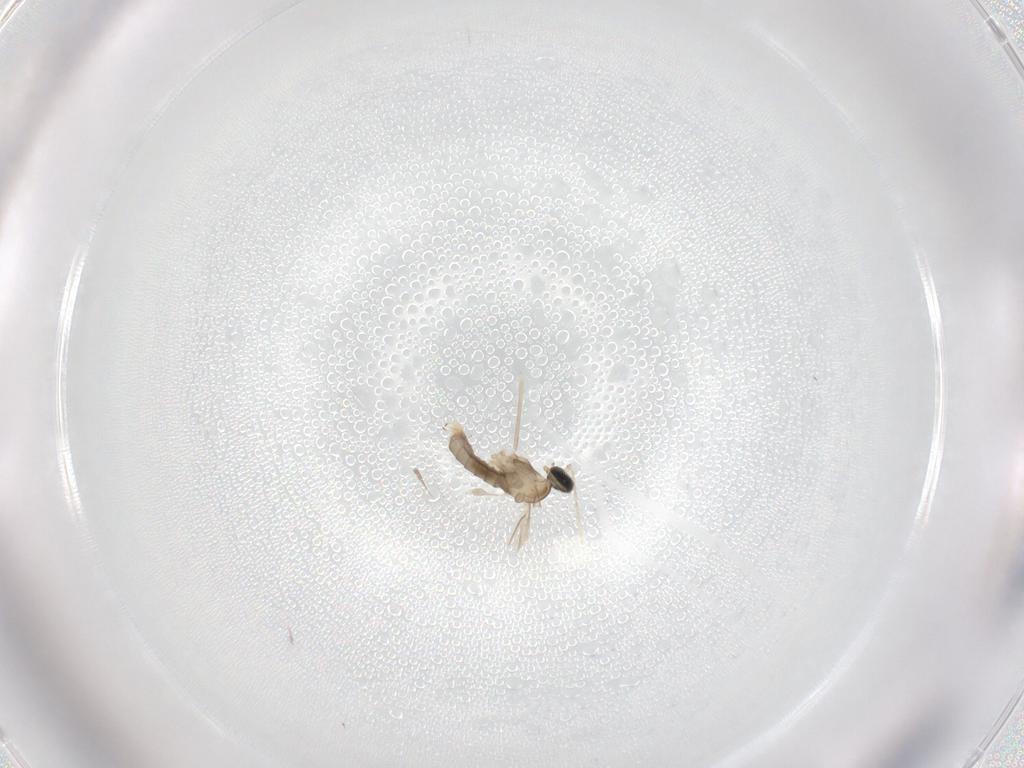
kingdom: Animalia
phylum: Arthropoda
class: Insecta
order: Diptera
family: Cecidomyiidae
